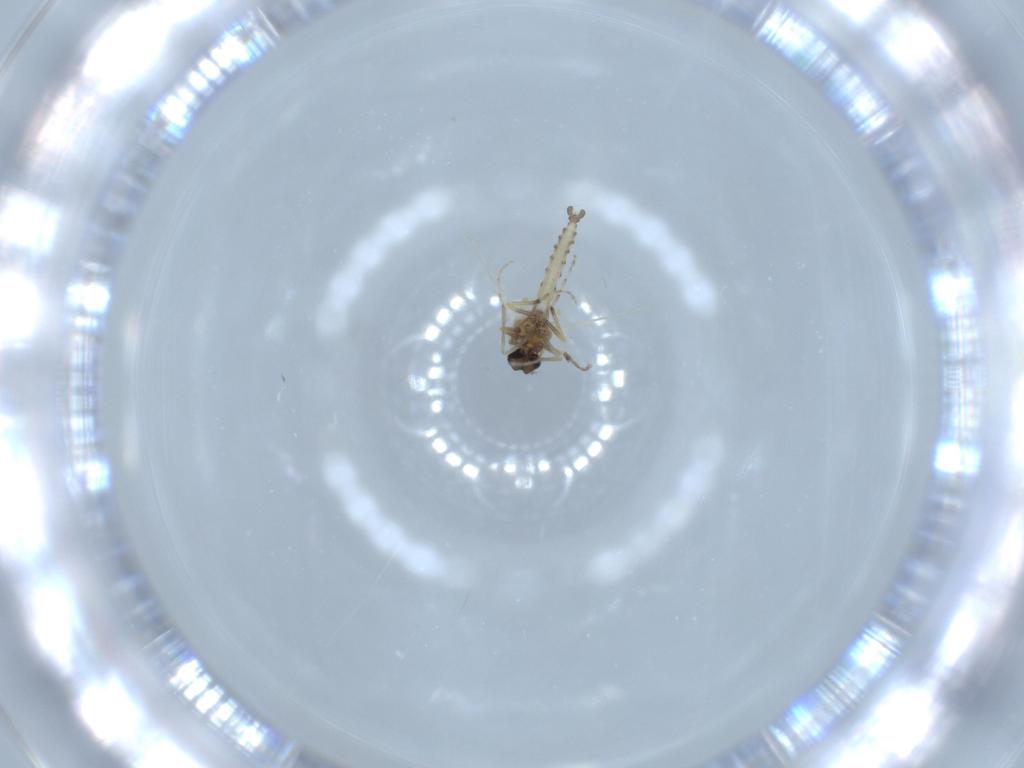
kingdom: Animalia
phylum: Arthropoda
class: Insecta
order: Diptera
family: Ceratopogonidae
